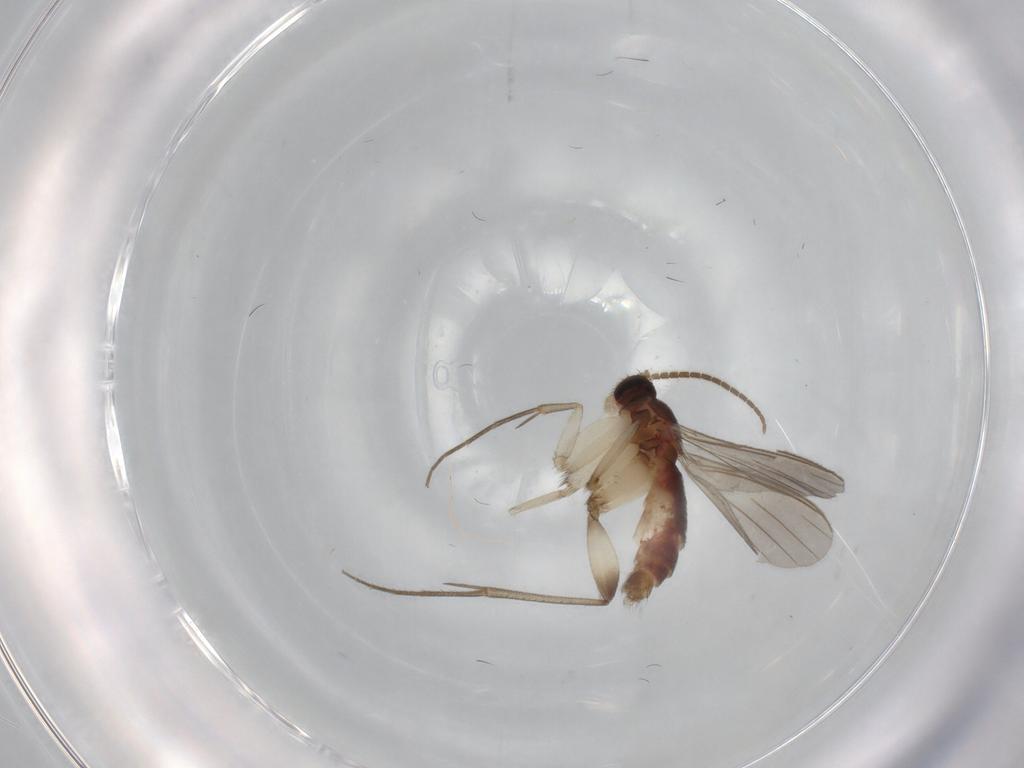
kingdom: Animalia
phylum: Arthropoda
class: Insecta
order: Diptera
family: Mycetophilidae
